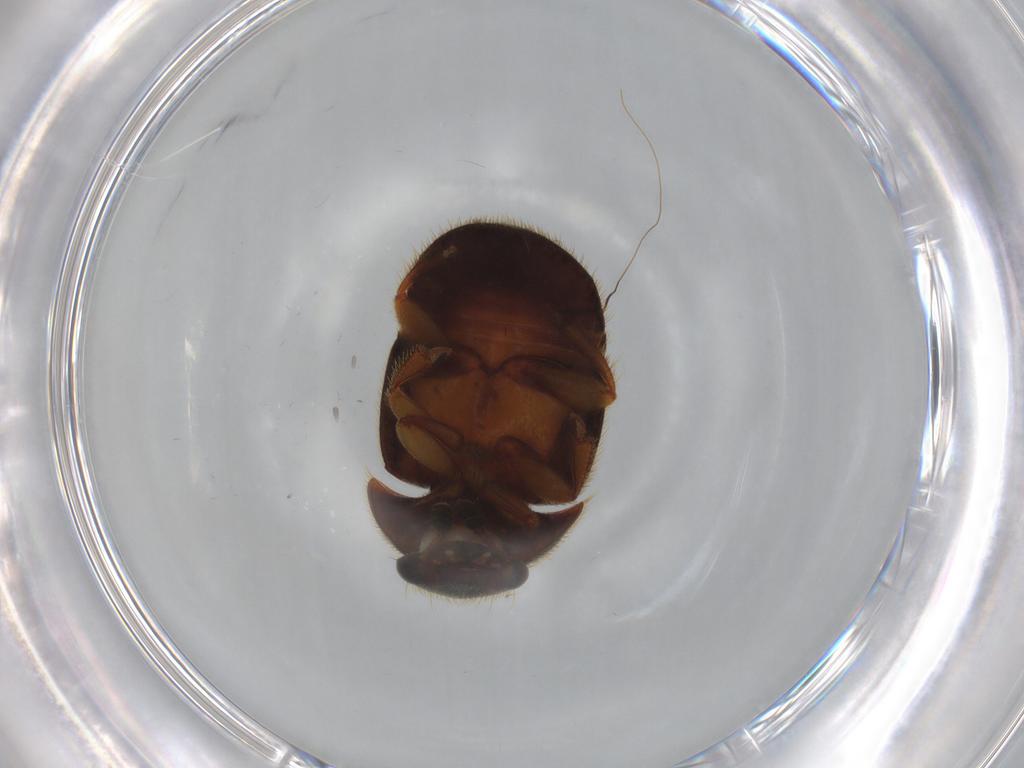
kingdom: Animalia
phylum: Arthropoda
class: Insecta
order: Coleoptera
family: Nitidulidae
